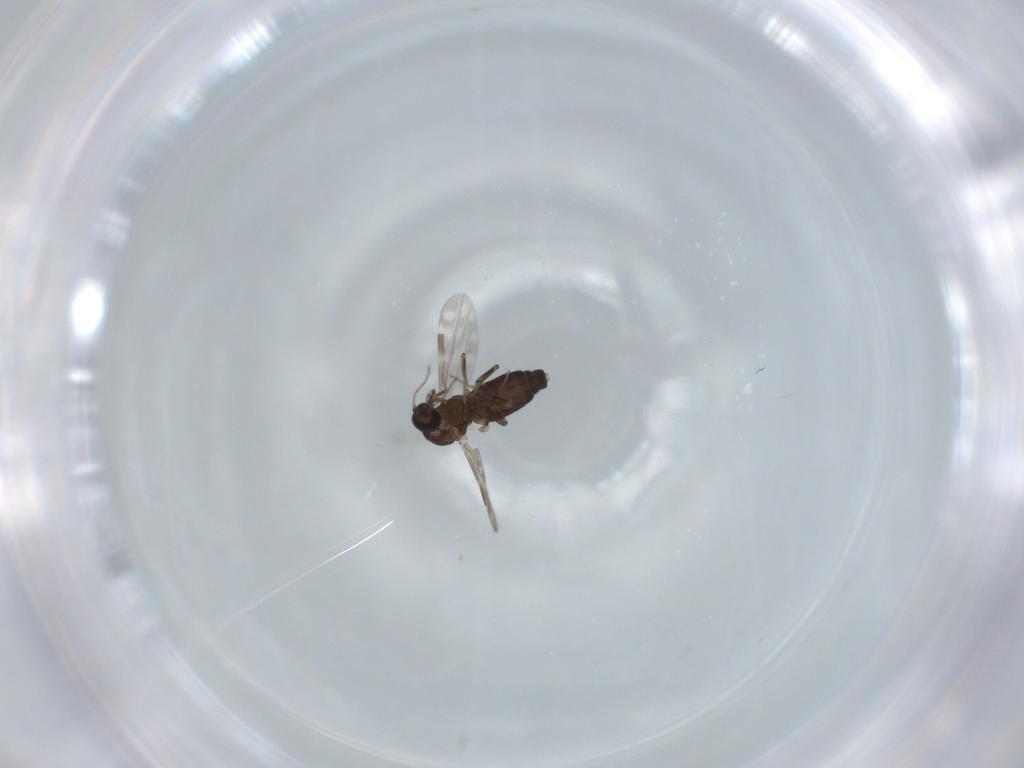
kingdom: Animalia
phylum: Arthropoda
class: Insecta
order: Diptera
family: Ceratopogonidae
